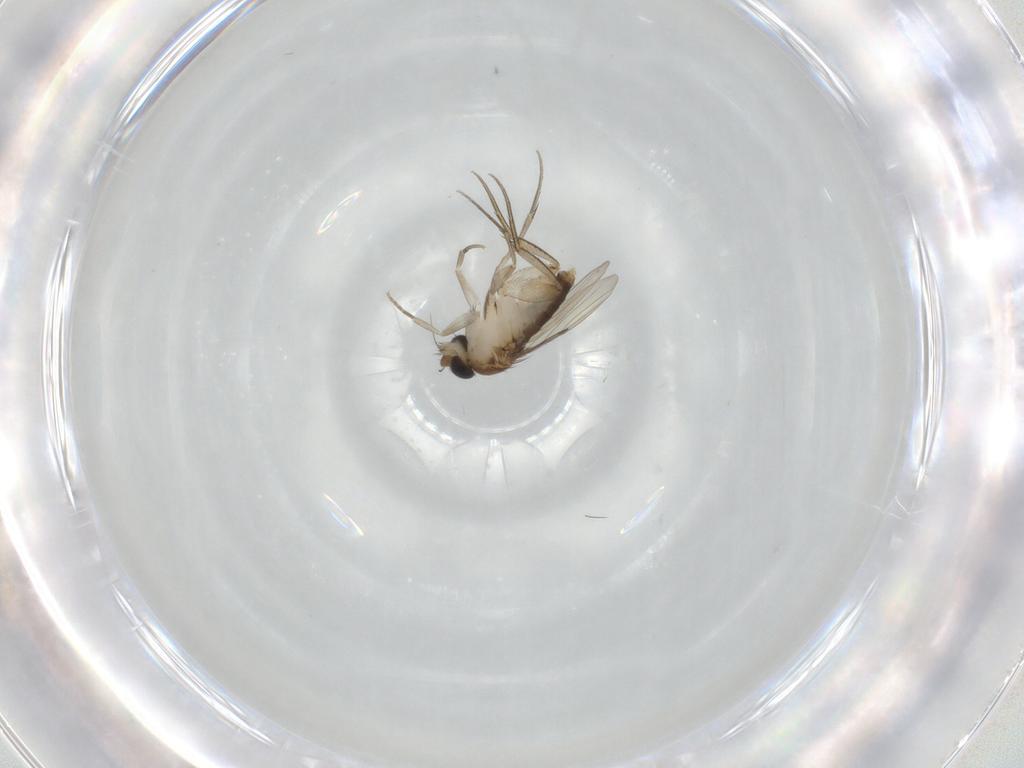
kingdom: Animalia
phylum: Arthropoda
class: Insecta
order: Diptera
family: Phoridae
